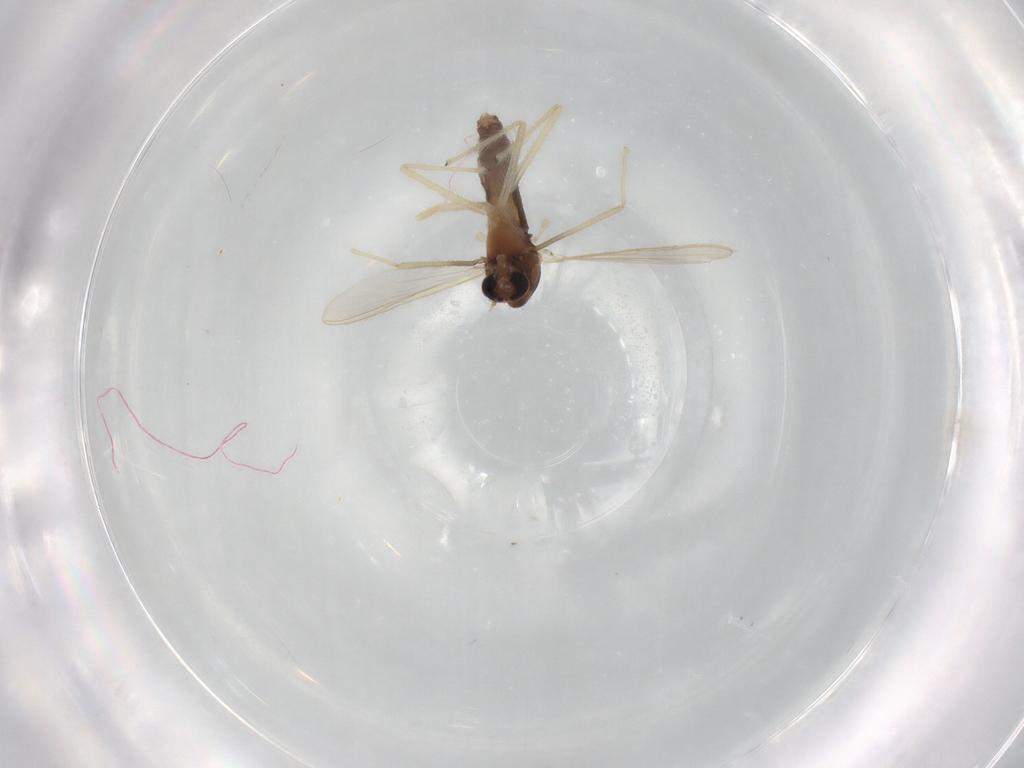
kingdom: Animalia
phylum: Arthropoda
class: Insecta
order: Diptera
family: Chironomidae
